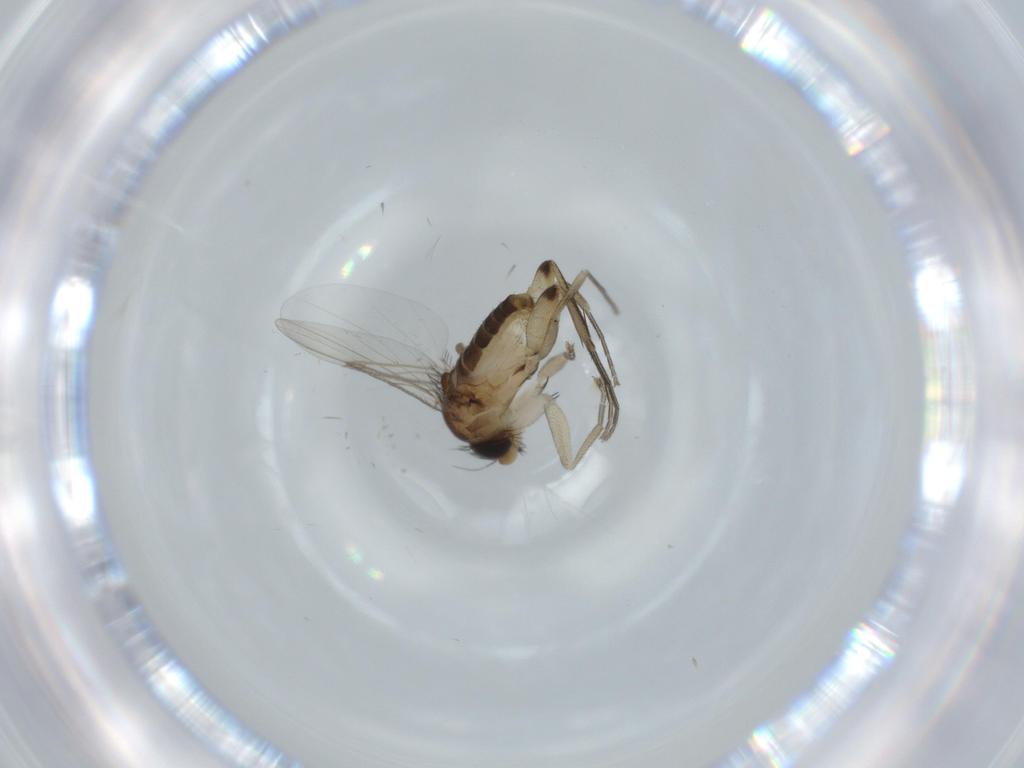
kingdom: Animalia
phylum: Arthropoda
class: Insecta
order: Diptera
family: Phoridae
